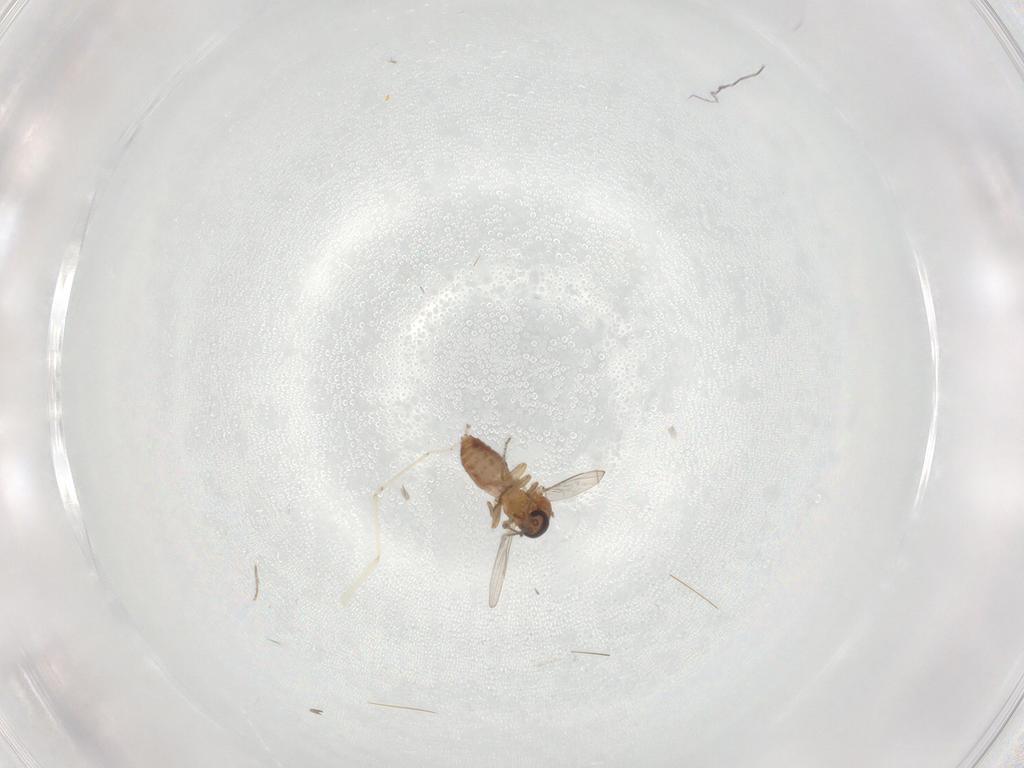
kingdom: Animalia
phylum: Arthropoda
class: Insecta
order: Diptera
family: Ceratopogonidae
